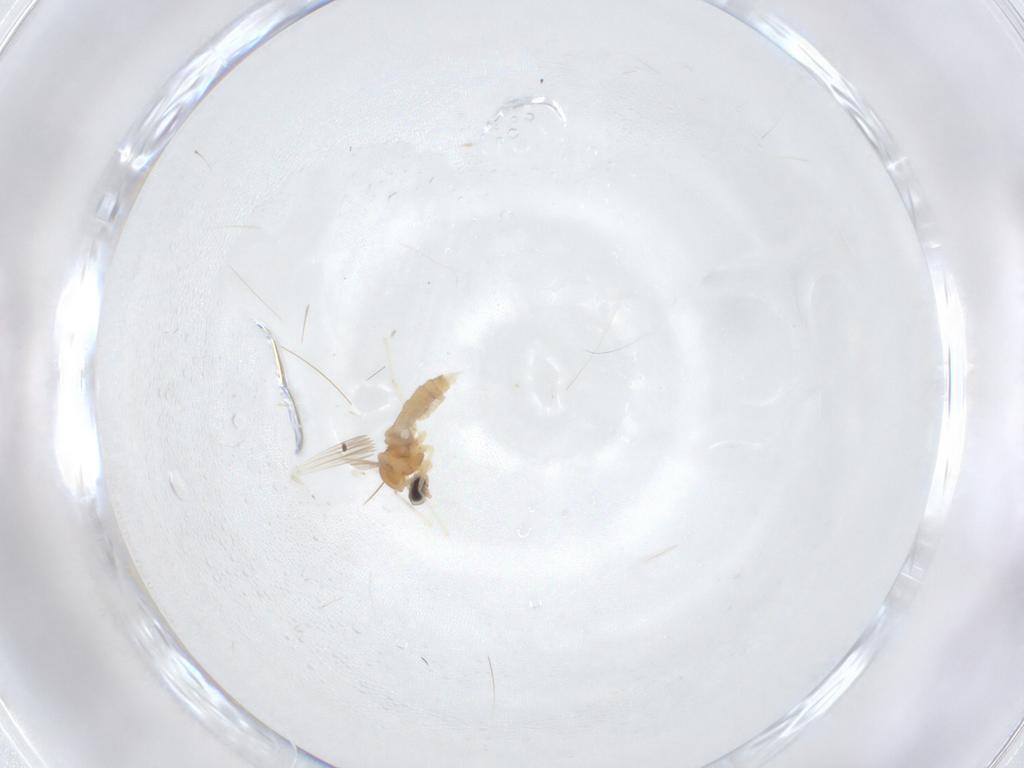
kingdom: Animalia
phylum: Arthropoda
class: Insecta
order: Diptera
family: Cecidomyiidae
